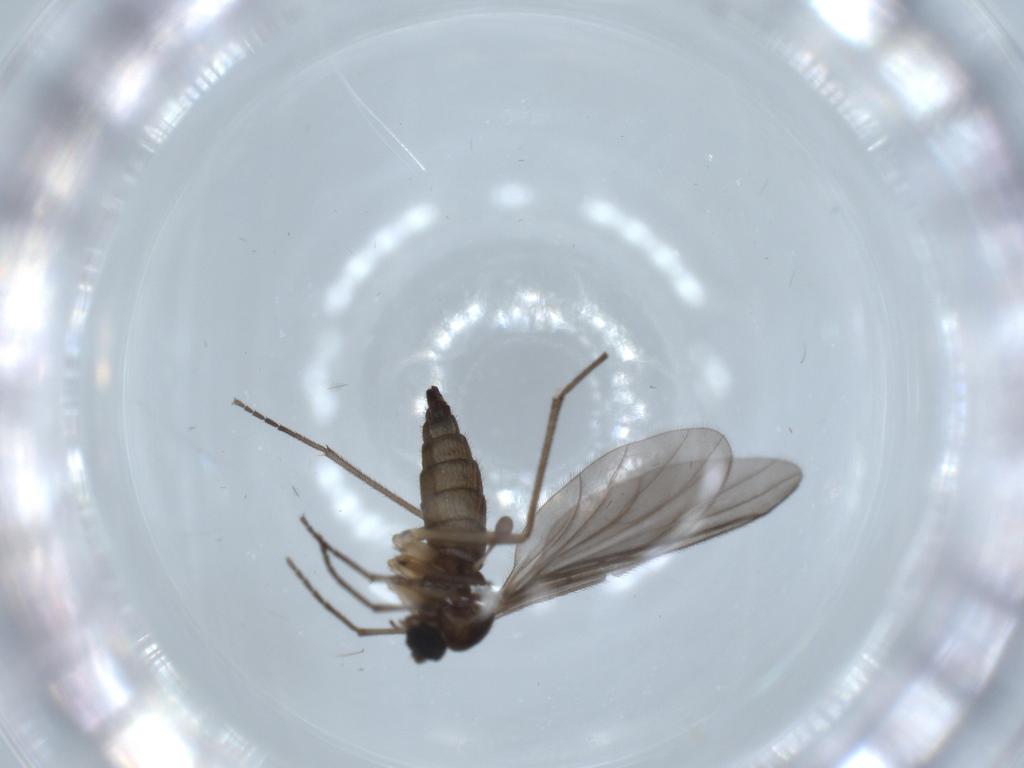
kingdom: Animalia
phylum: Arthropoda
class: Insecta
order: Diptera
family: Sciaridae
